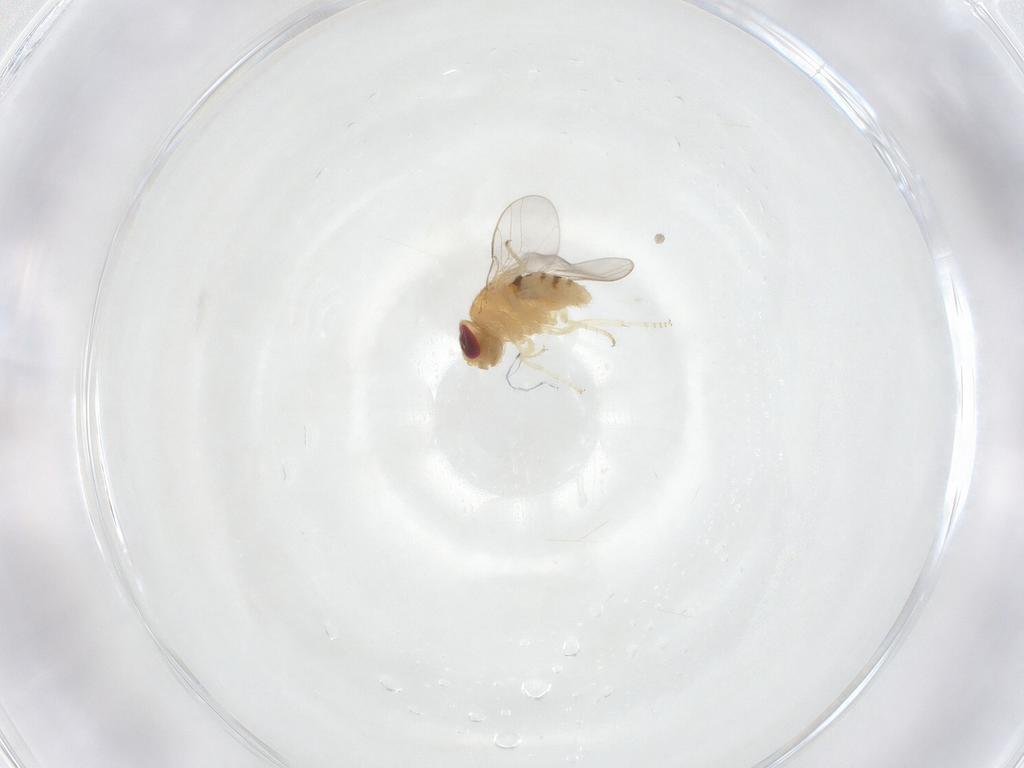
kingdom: Animalia
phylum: Arthropoda
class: Insecta
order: Diptera
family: Chloropidae
